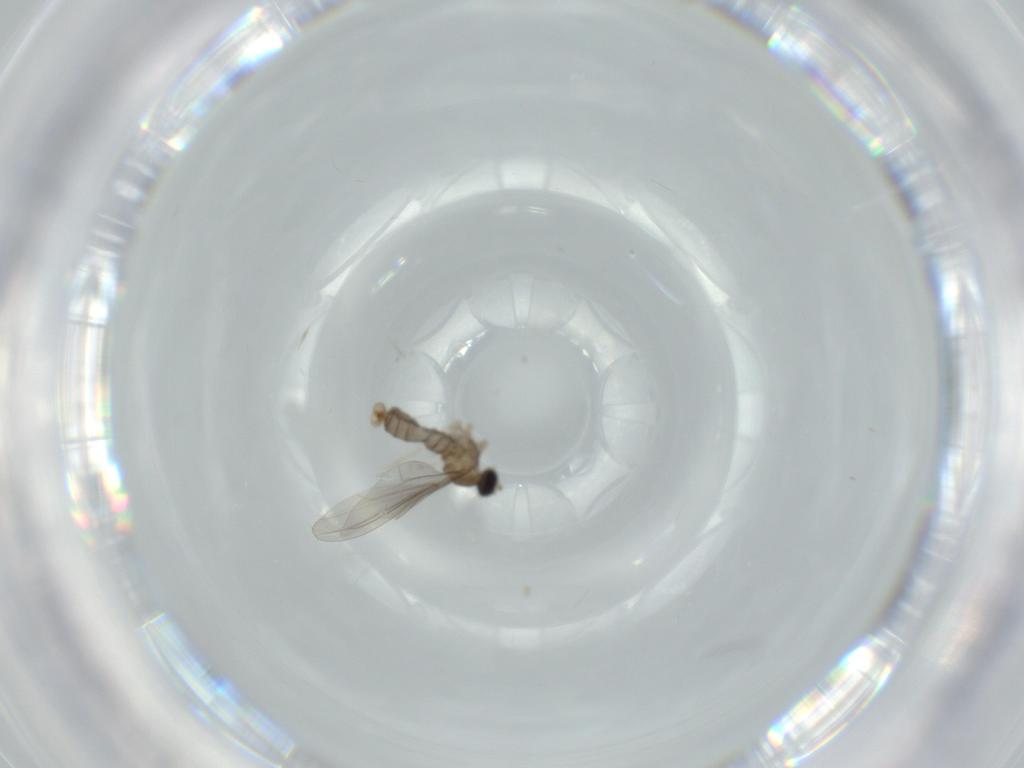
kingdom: Animalia
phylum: Arthropoda
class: Insecta
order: Diptera
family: Cecidomyiidae
